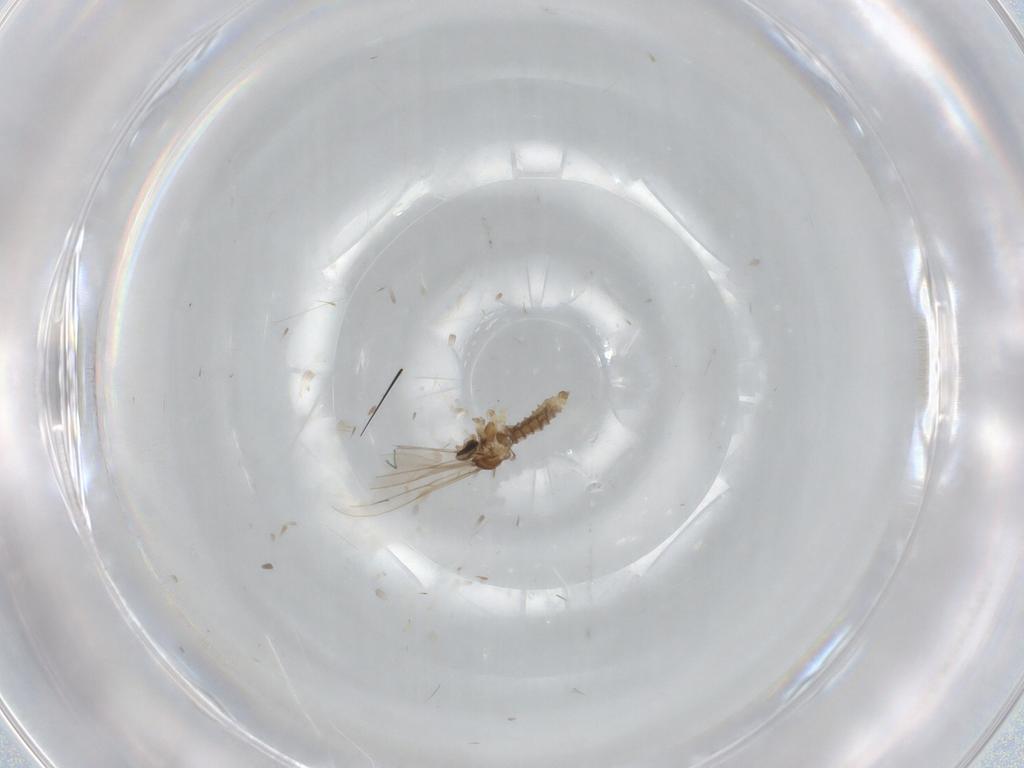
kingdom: Animalia
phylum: Arthropoda
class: Insecta
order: Diptera
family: Cecidomyiidae
